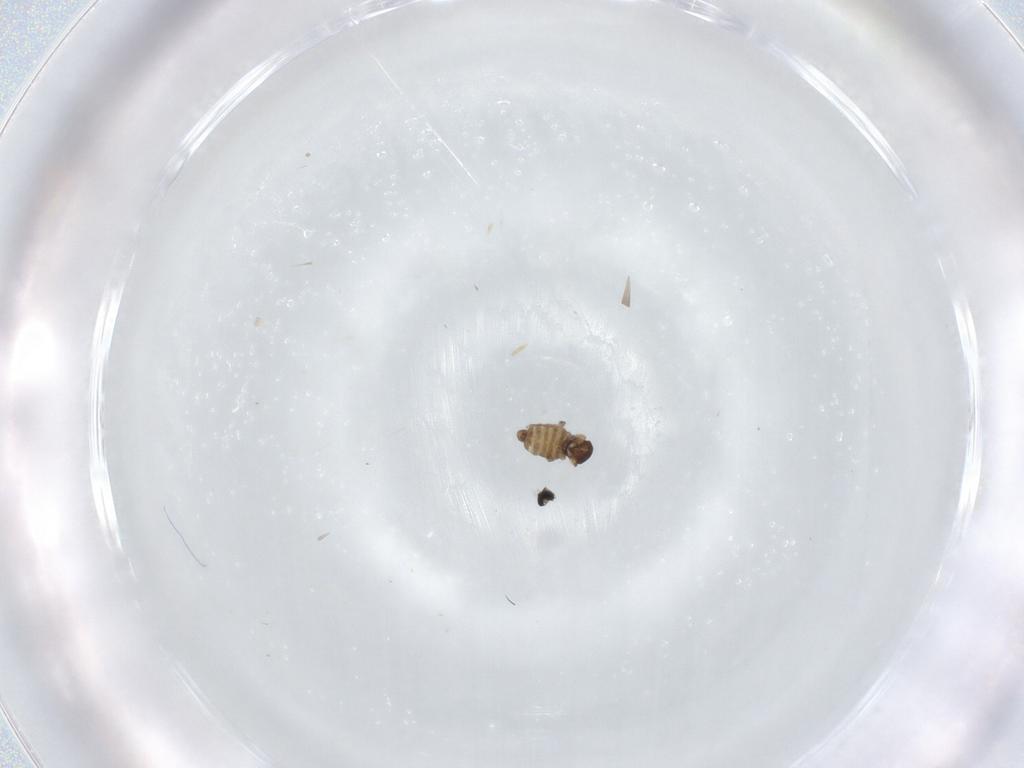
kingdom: Animalia
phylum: Arthropoda
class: Insecta
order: Diptera
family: Cecidomyiidae
